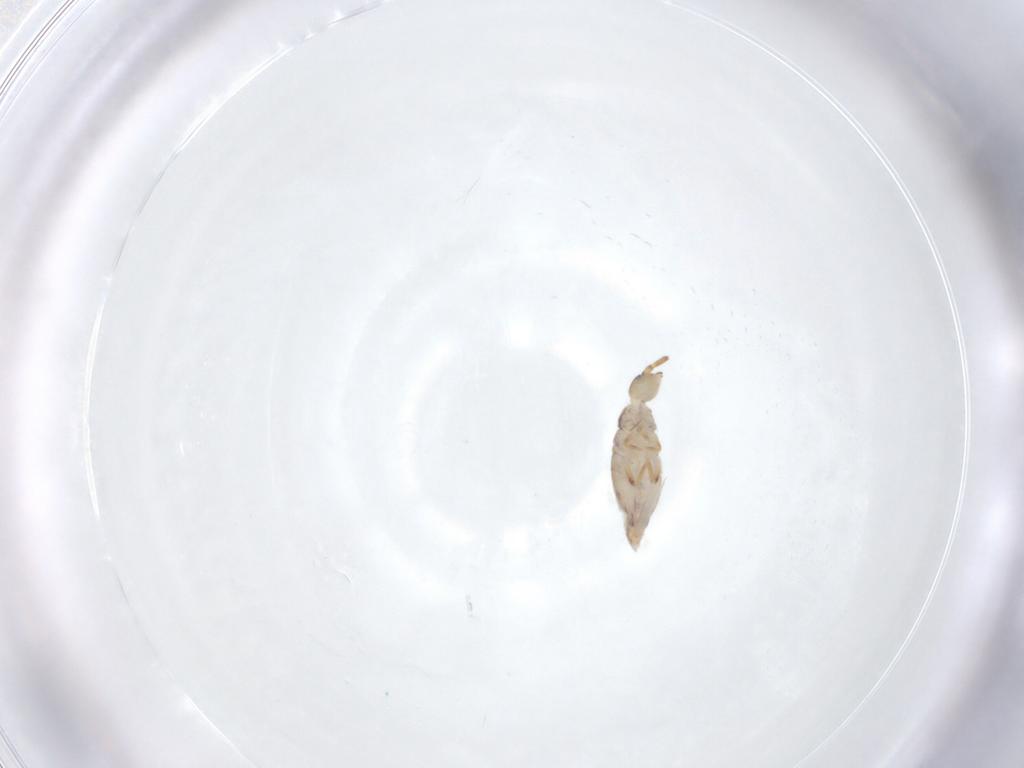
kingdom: Animalia
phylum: Arthropoda
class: Collembola
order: Entomobryomorpha
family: Entomobryidae
